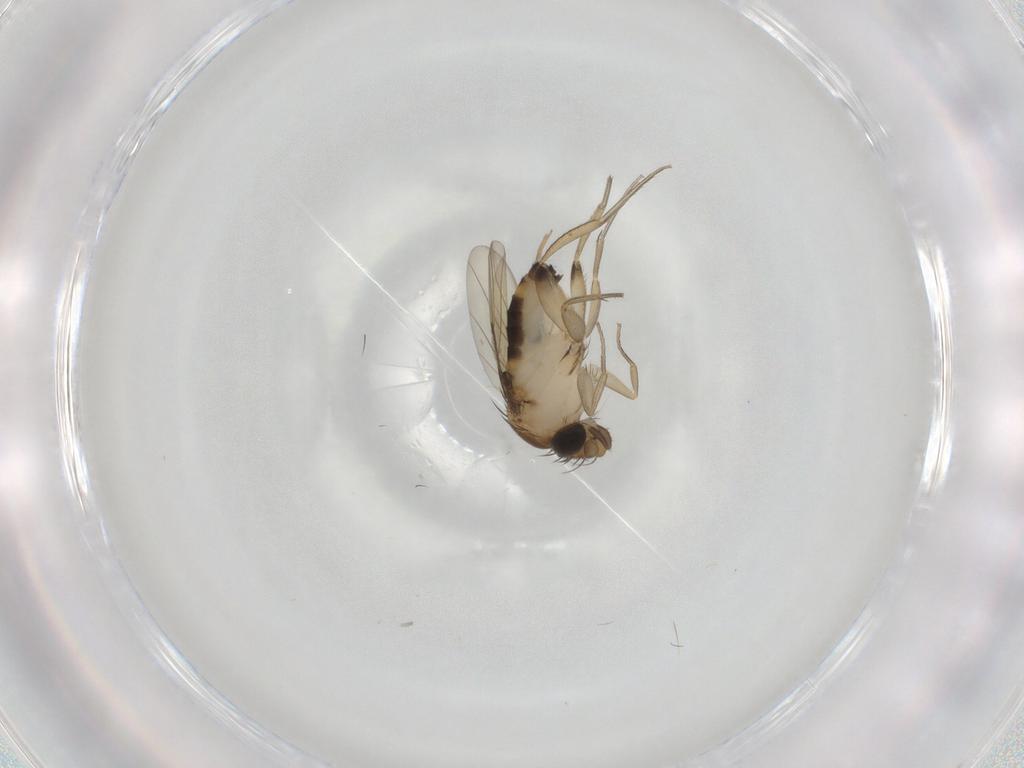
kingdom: Animalia
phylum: Arthropoda
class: Insecta
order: Diptera
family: Phoridae
